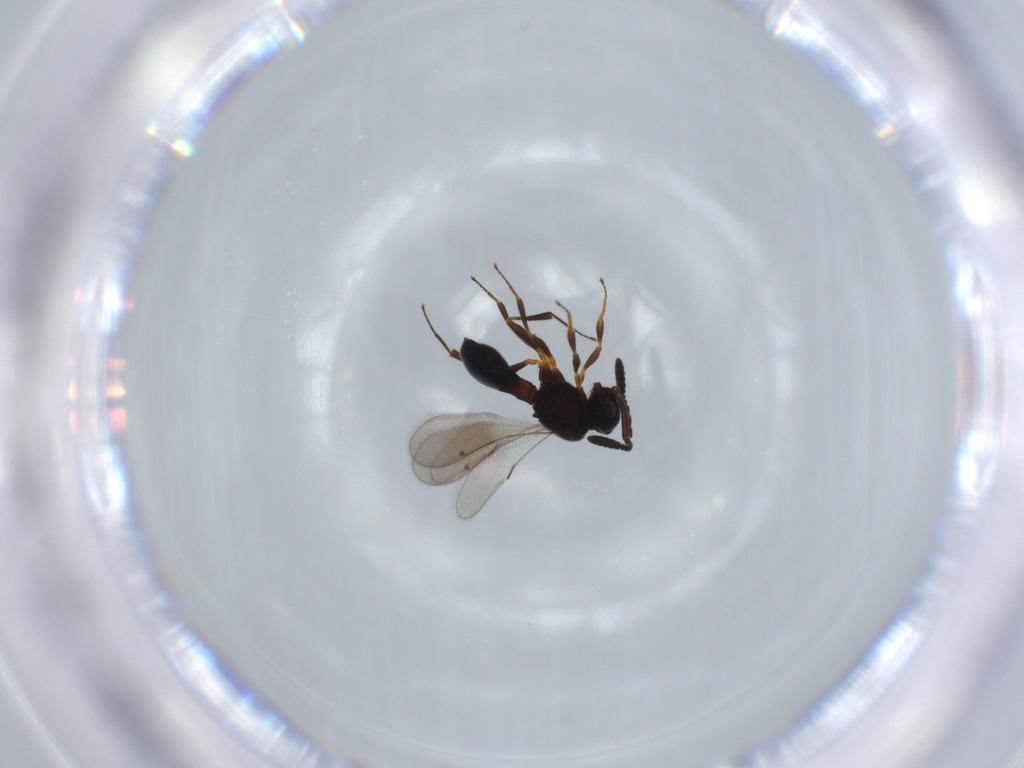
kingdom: Animalia
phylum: Arthropoda
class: Insecta
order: Hymenoptera
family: Scelionidae
